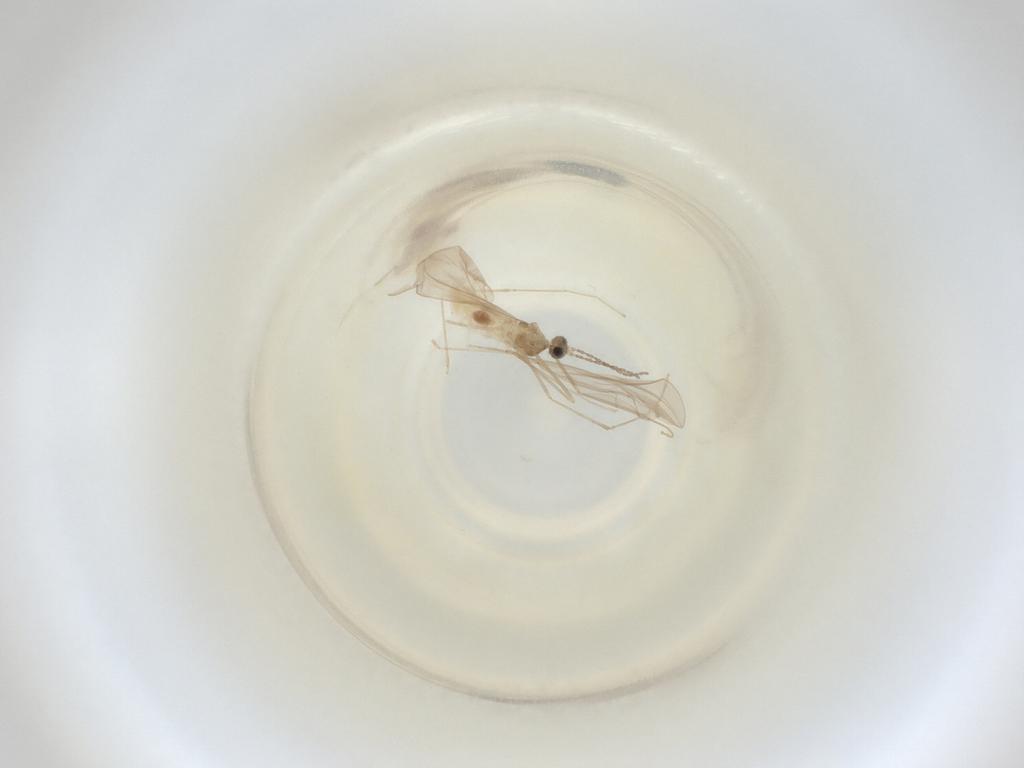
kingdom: Animalia
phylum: Arthropoda
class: Insecta
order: Diptera
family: Cecidomyiidae
